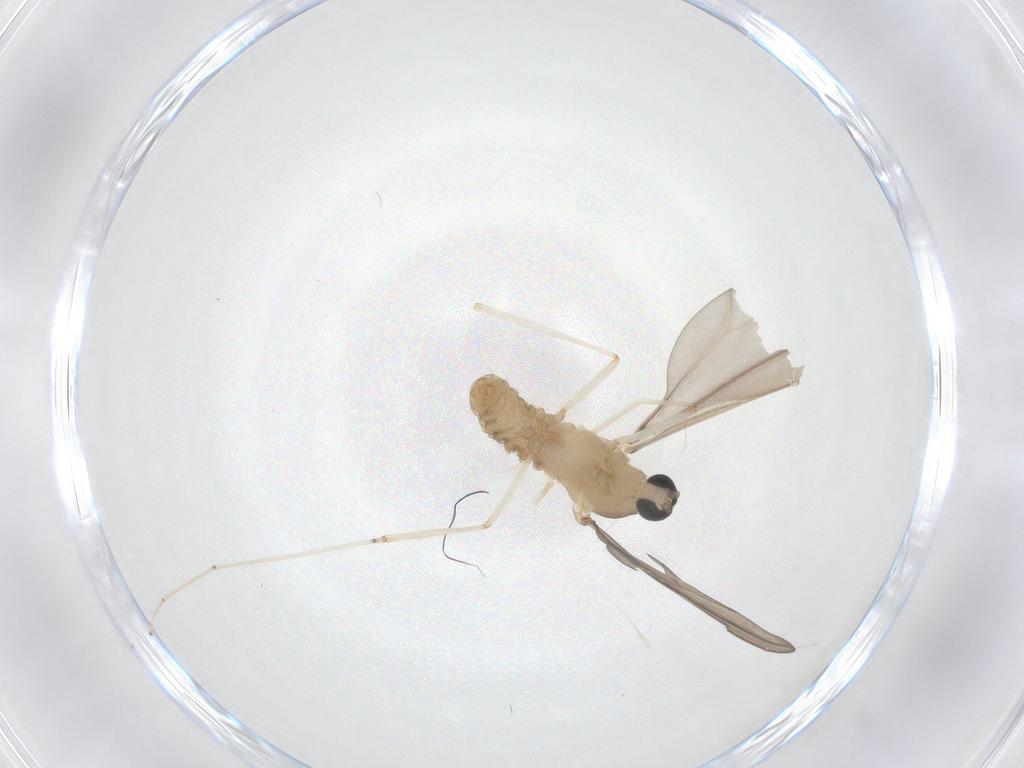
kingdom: Animalia
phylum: Arthropoda
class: Insecta
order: Diptera
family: Cecidomyiidae
